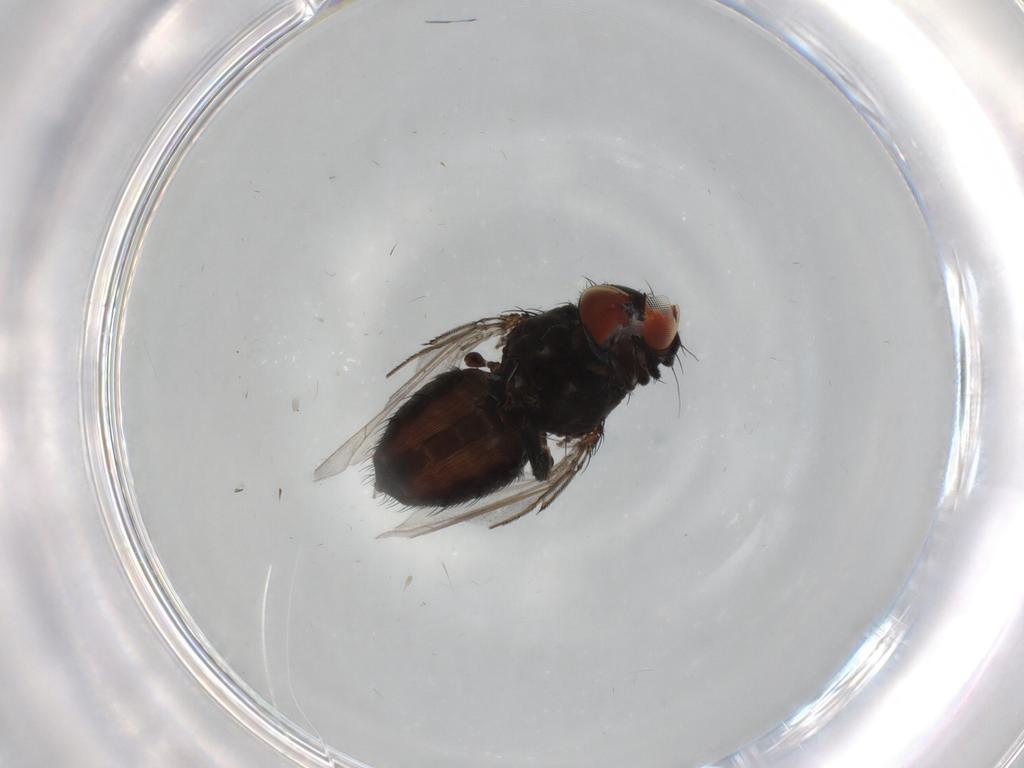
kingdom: Animalia
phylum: Arthropoda
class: Insecta
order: Diptera
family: Milichiidae
